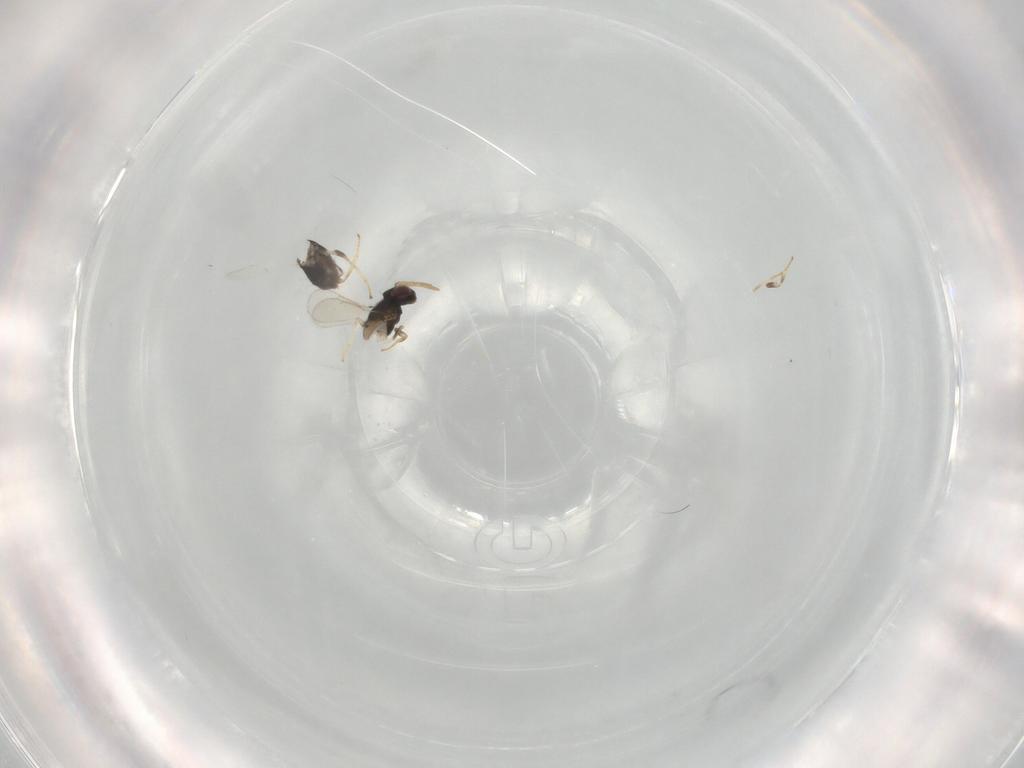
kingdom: Animalia
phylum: Arthropoda
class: Insecta
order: Hymenoptera
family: Aphelinidae
